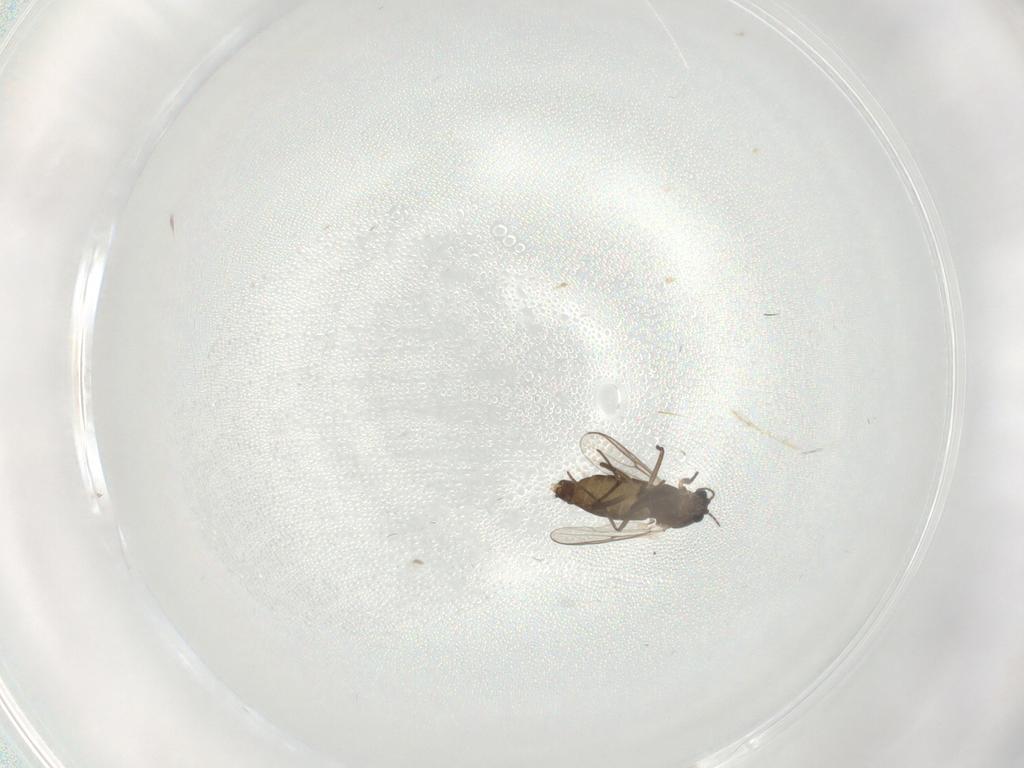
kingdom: Animalia
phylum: Arthropoda
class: Insecta
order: Diptera
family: Chironomidae
